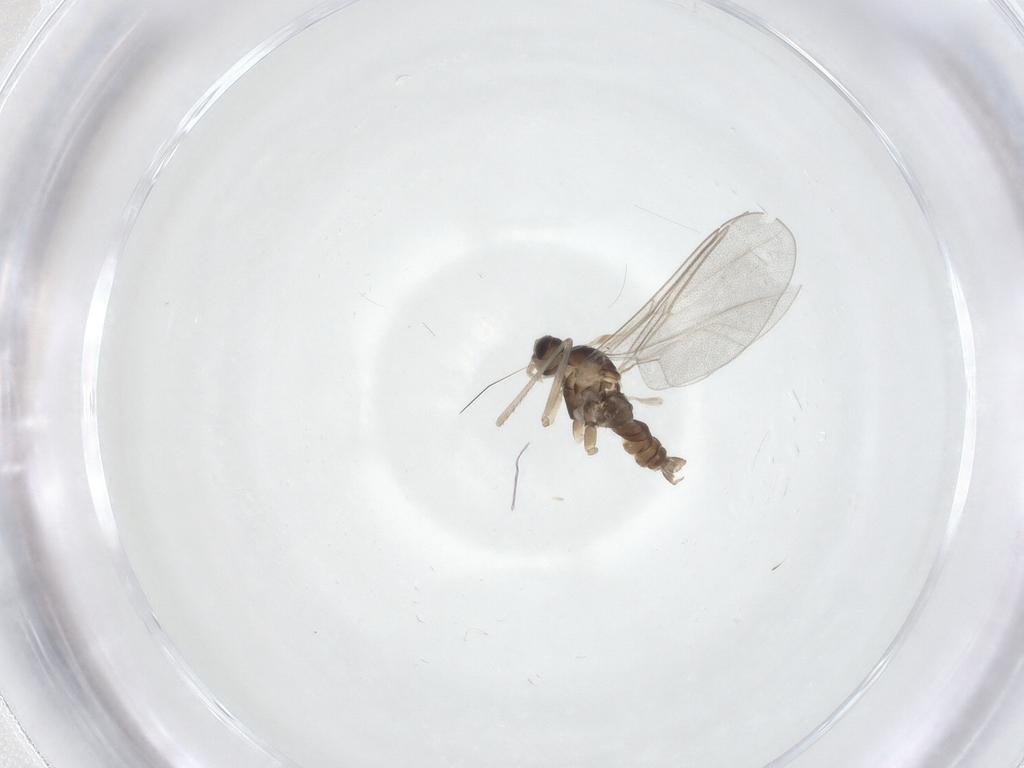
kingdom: Animalia
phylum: Arthropoda
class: Insecta
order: Diptera
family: Cecidomyiidae
